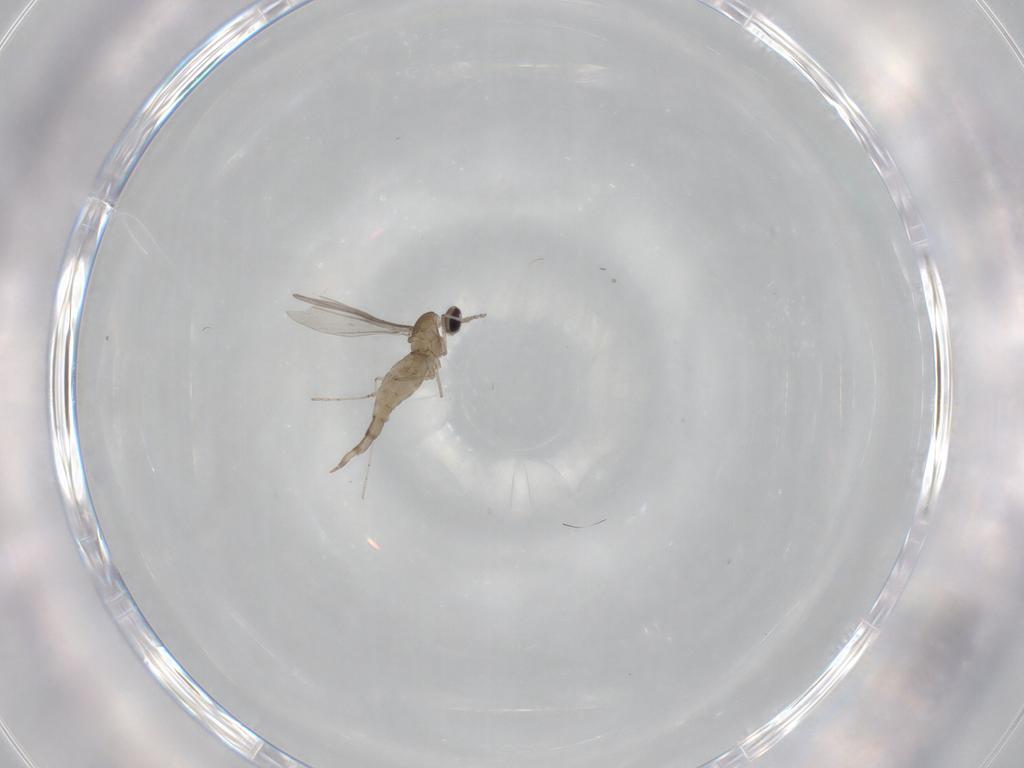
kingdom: Animalia
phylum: Arthropoda
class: Insecta
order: Diptera
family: Cecidomyiidae
